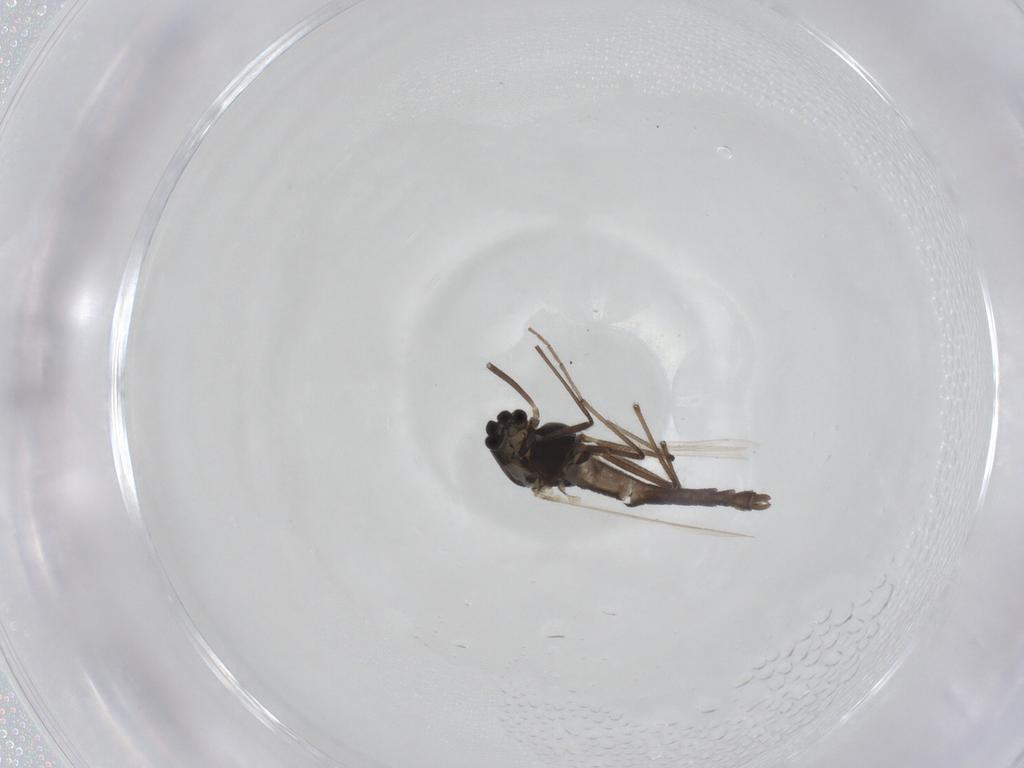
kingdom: Animalia
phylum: Arthropoda
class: Insecta
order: Diptera
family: Chironomidae
